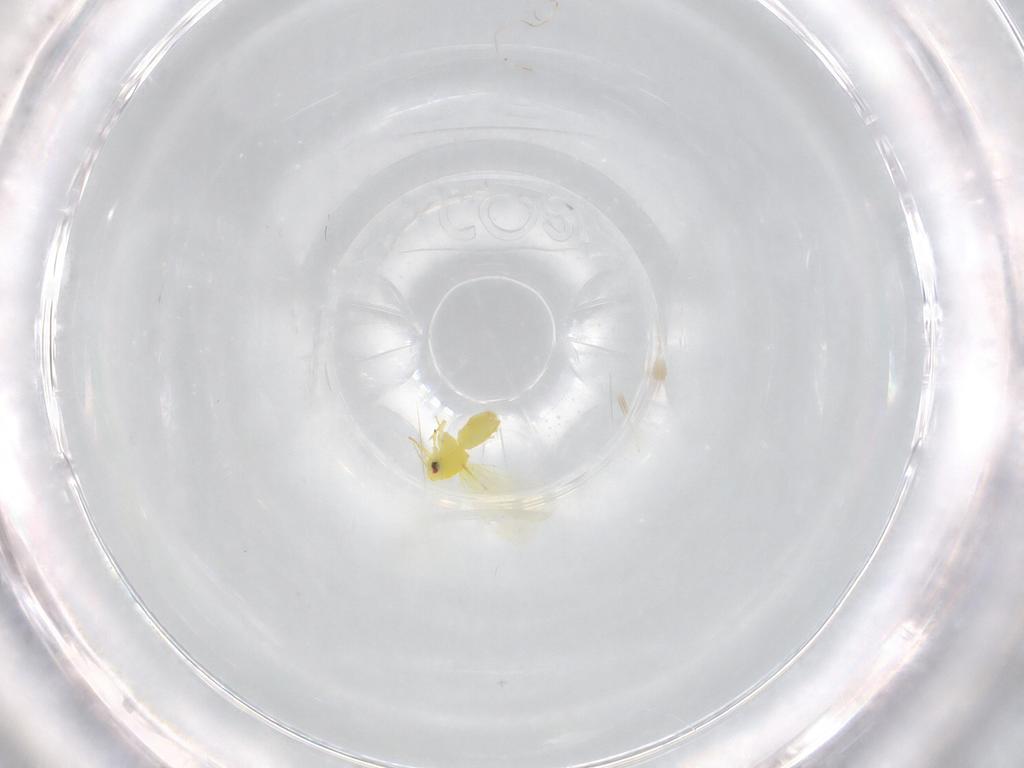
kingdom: Animalia
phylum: Arthropoda
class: Insecta
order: Hemiptera
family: Aleyrodidae
